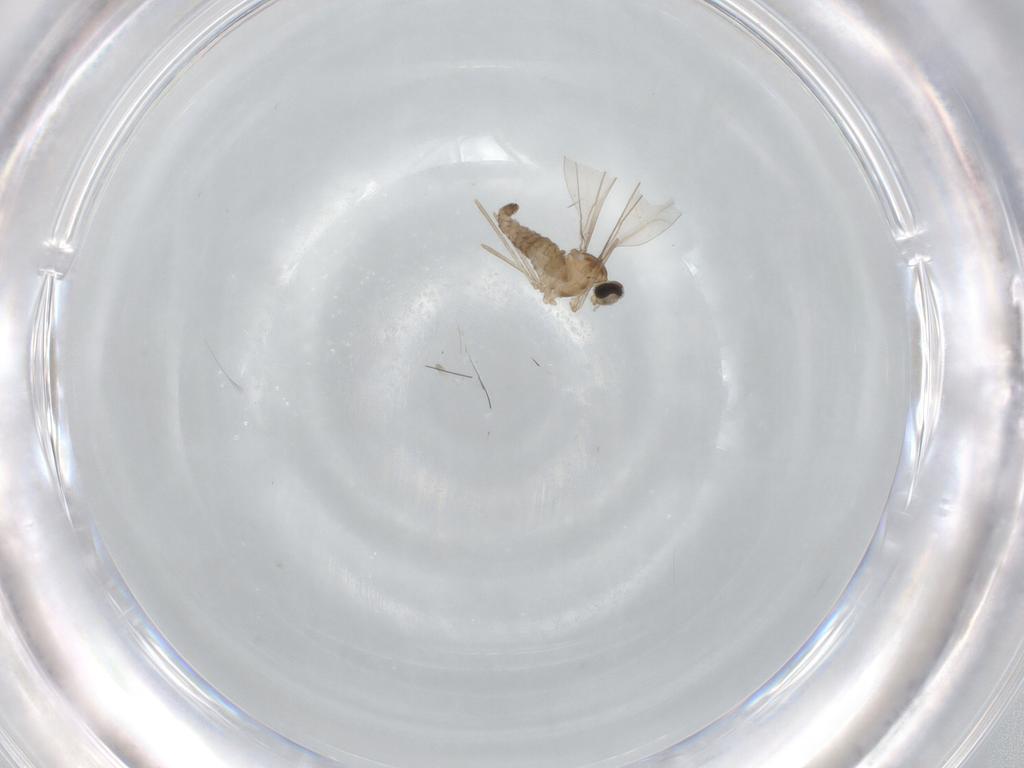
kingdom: Animalia
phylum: Arthropoda
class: Insecta
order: Diptera
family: Cecidomyiidae
